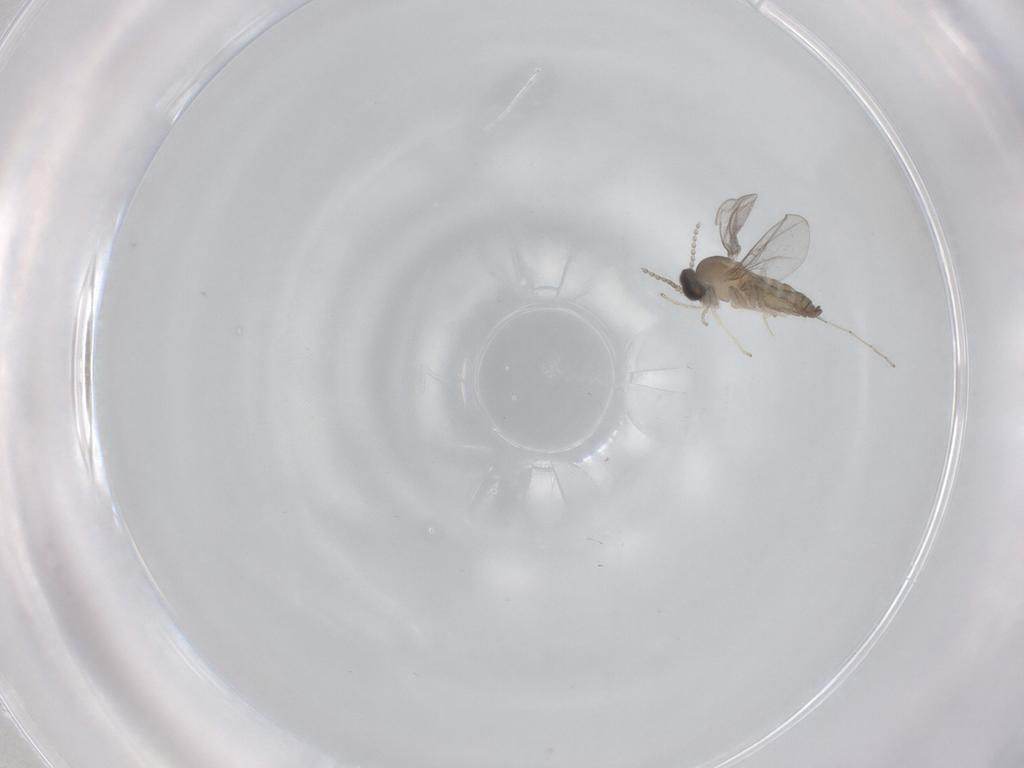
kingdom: Animalia
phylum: Arthropoda
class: Insecta
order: Diptera
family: Cecidomyiidae
